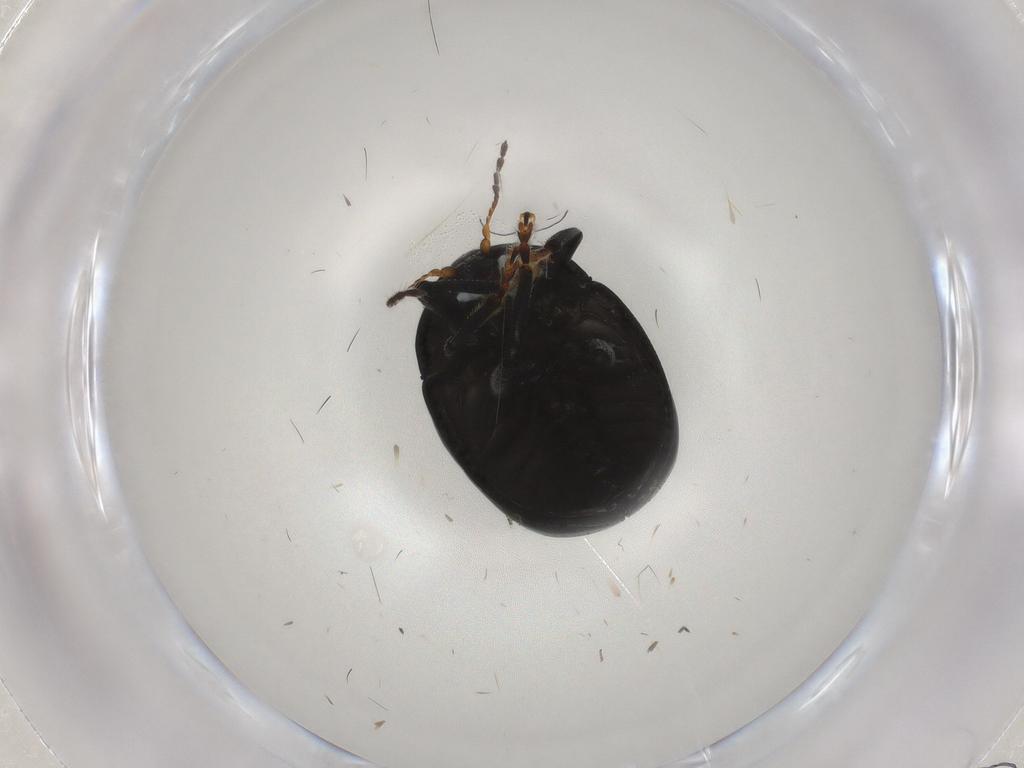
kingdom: Animalia
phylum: Arthropoda
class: Insecta
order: Coleoptera
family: Chrysomelidae
